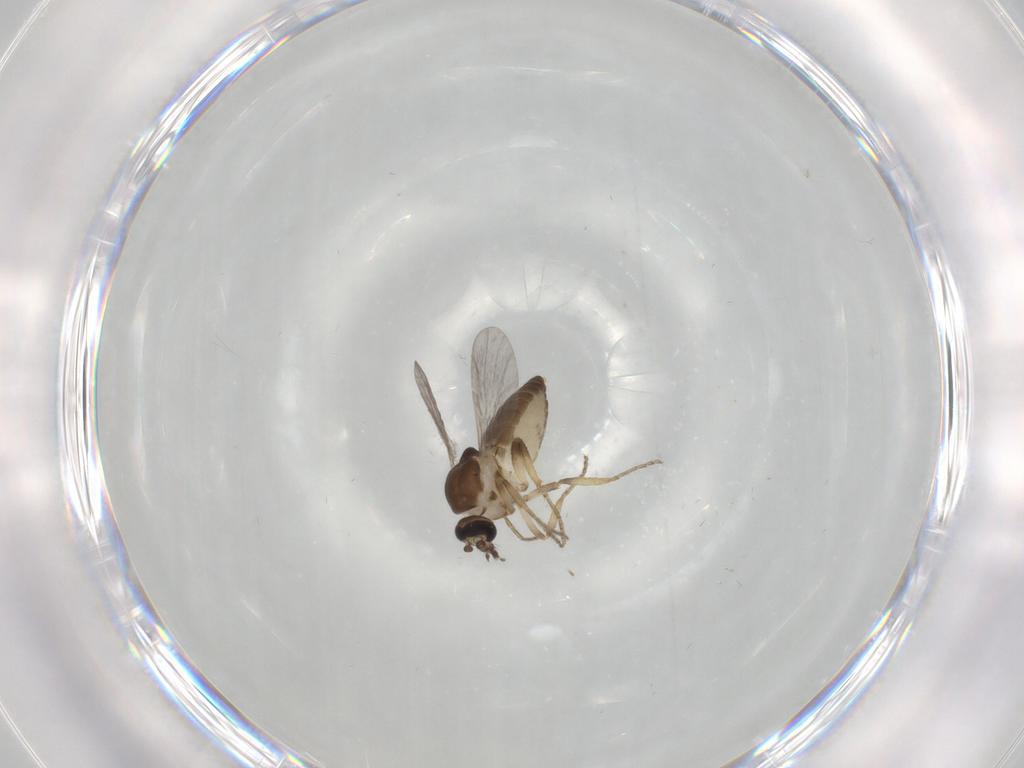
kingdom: Animalia
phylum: Arthropoda
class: Insecta
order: Diptera
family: Ceratopogonidae
